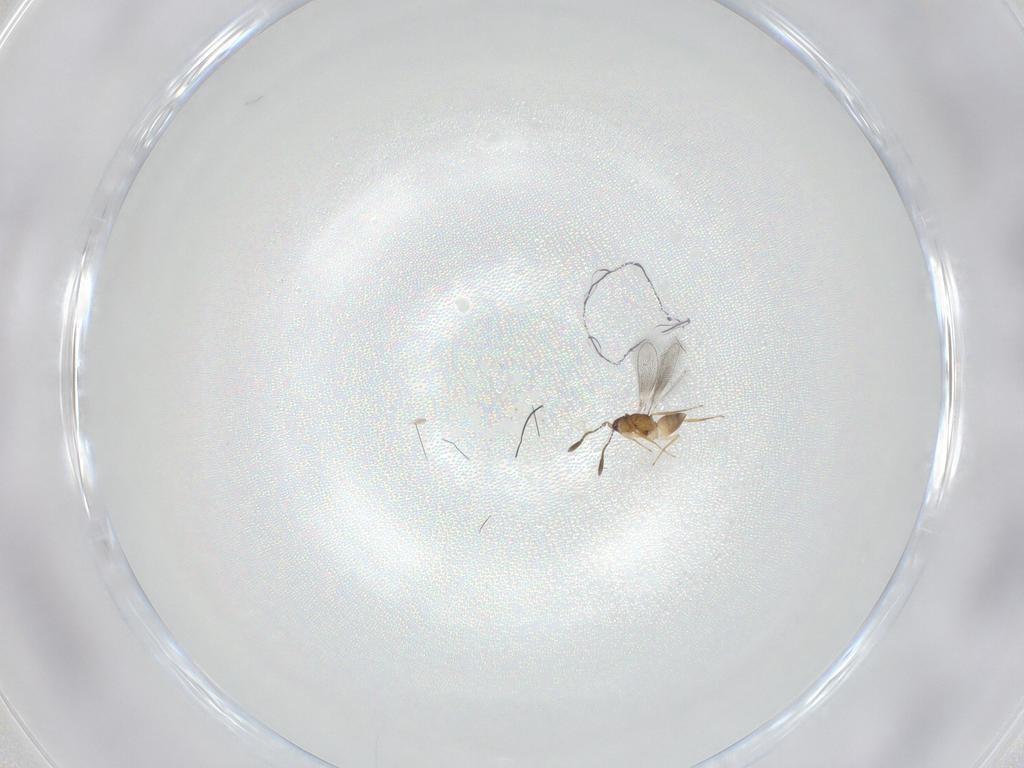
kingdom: Animalia
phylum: Arthropoda
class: Insecta
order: Hymenoptera
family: Mymaridae
